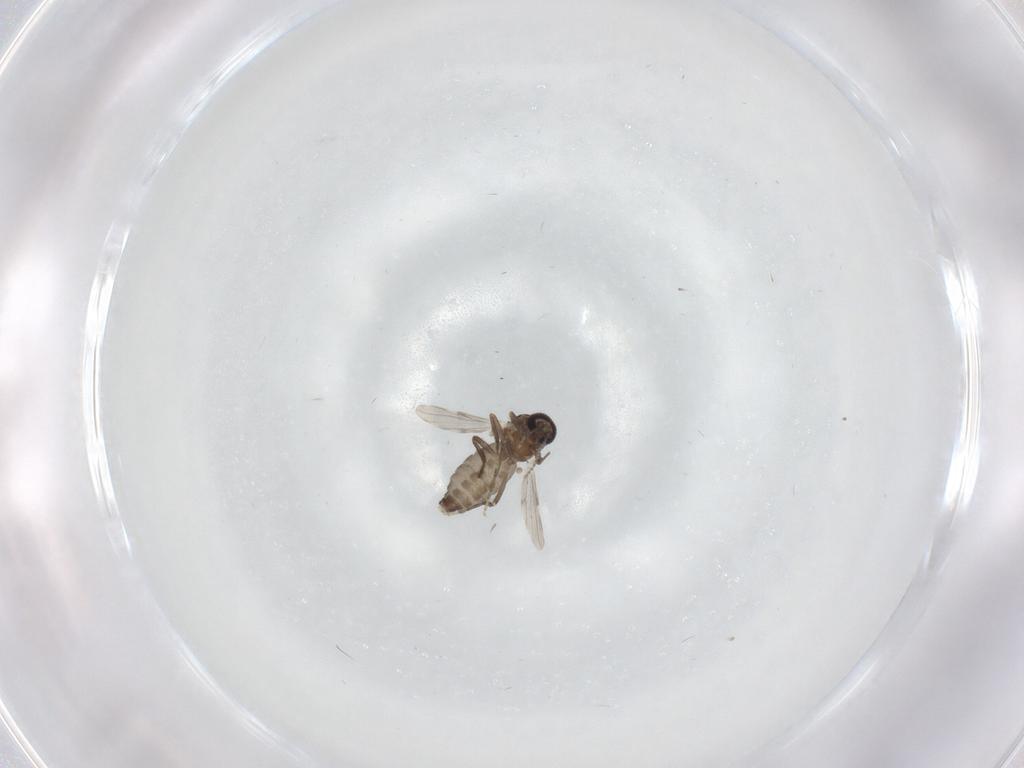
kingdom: Animalia
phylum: Arthropoda
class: Insecta
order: Diptera
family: Ceratopogonidae
